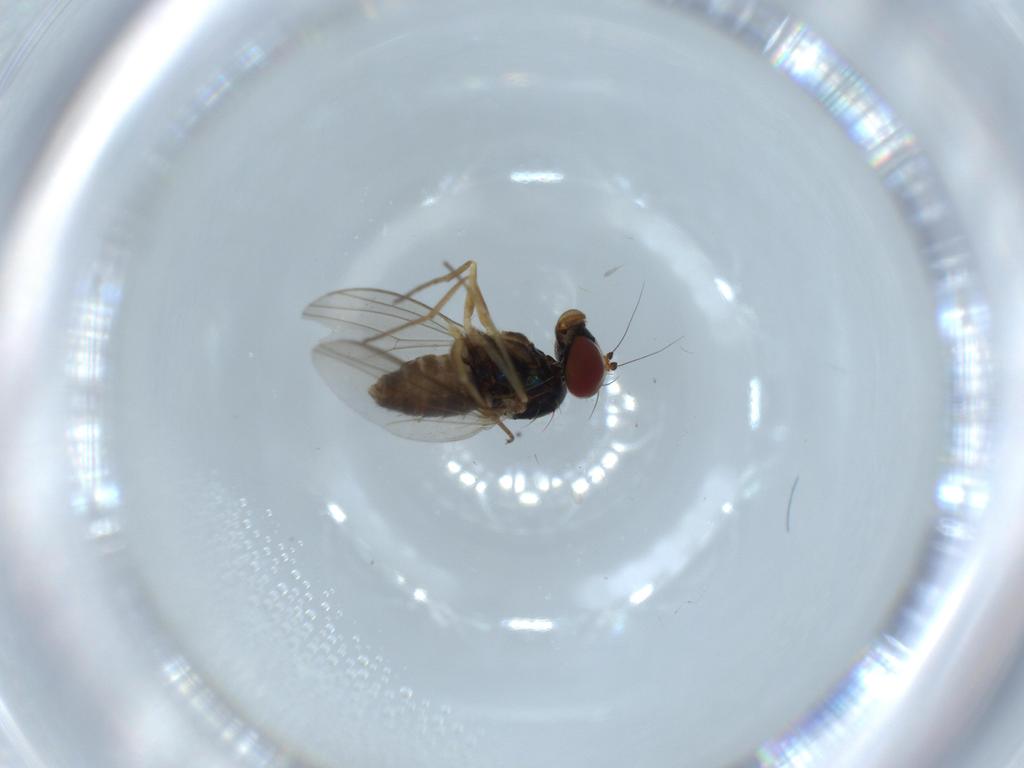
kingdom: Animalia
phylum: Arthropoda
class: Insecta
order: Diptera
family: Dolichopodidae
